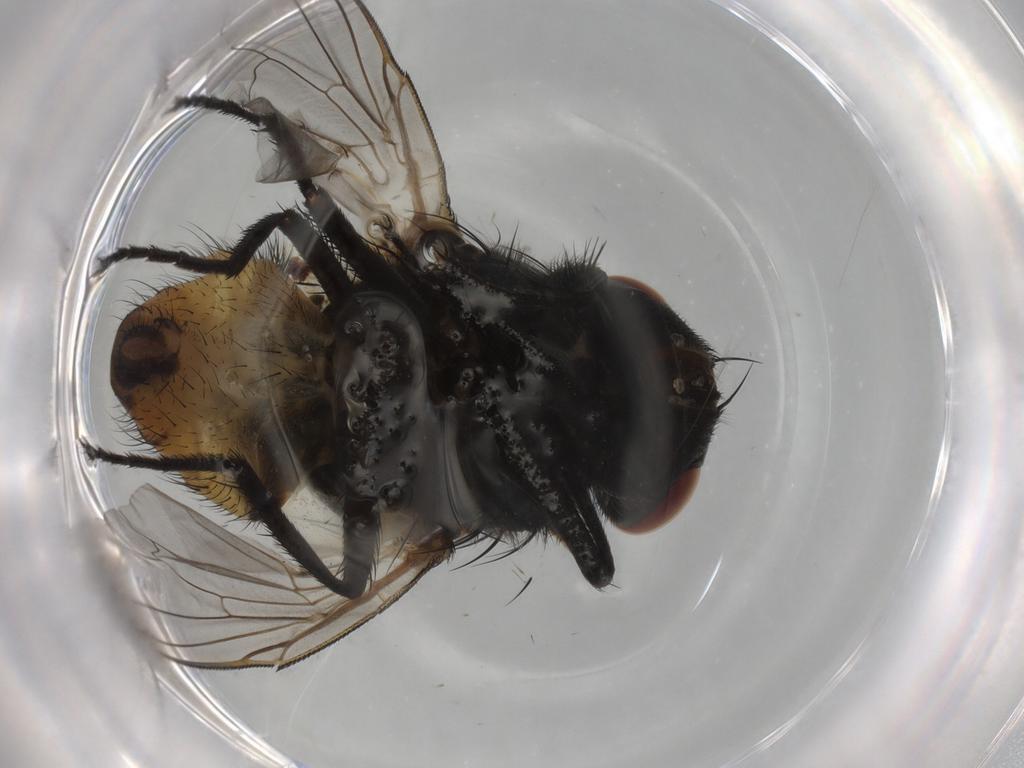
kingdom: Animalia
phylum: Arthropoda
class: Insecta
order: Diptera
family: Muscidae
